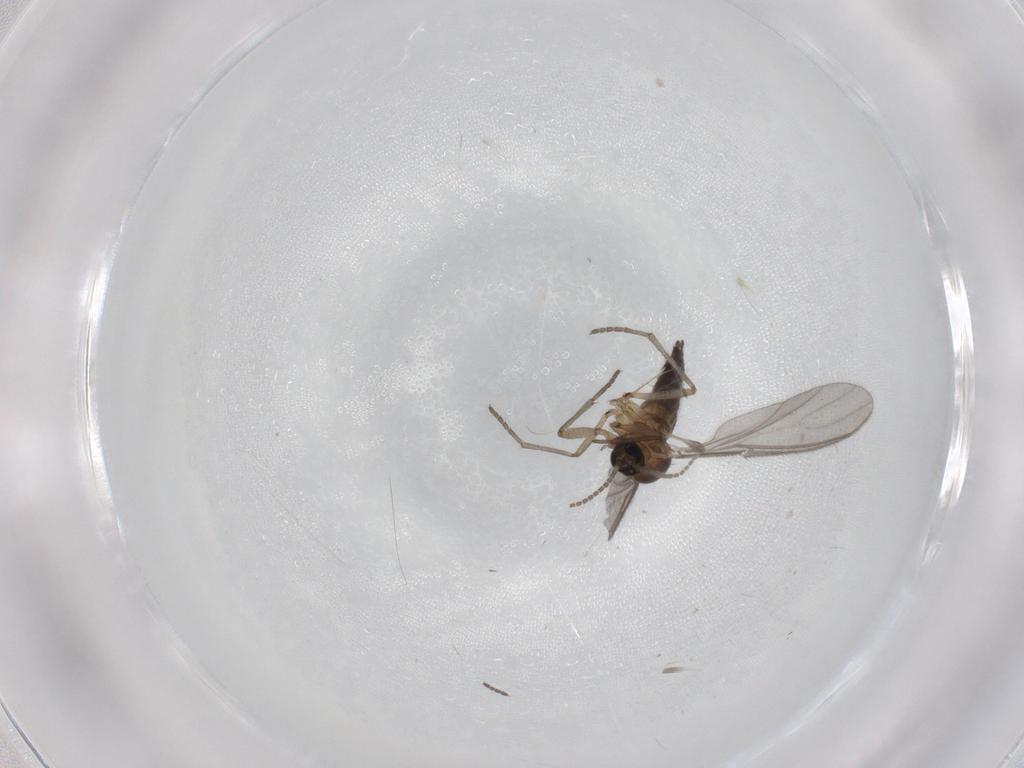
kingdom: Animalia
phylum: Arthropoda
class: Insecta
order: Diptera
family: Sciaridae
